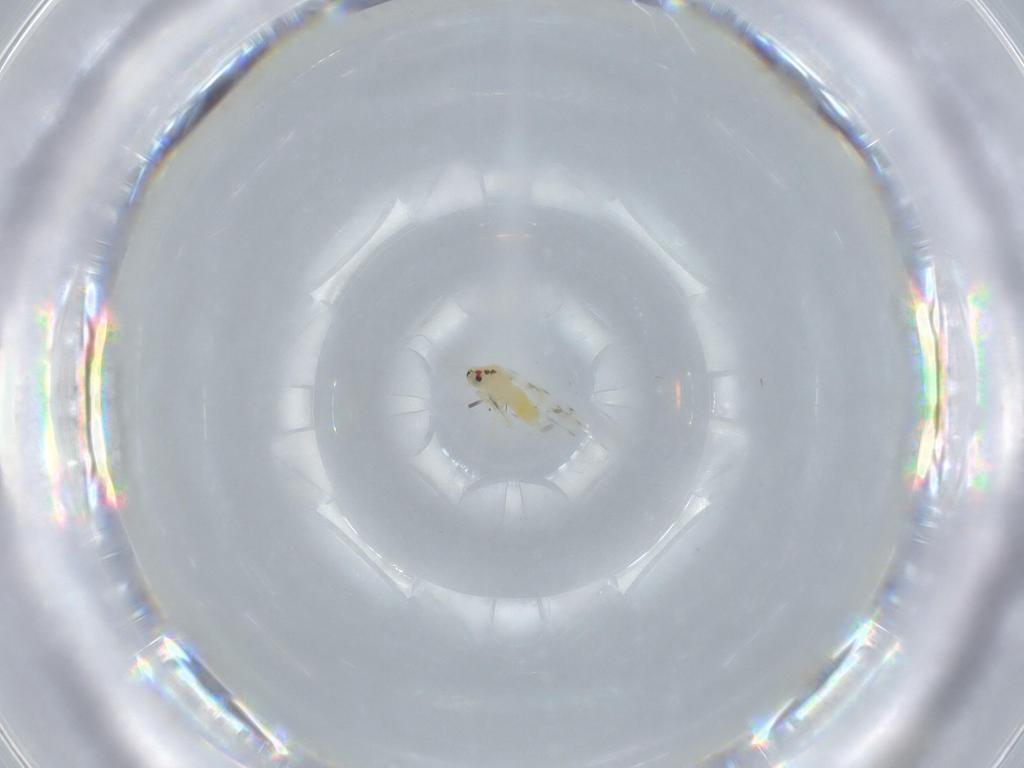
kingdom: Animalia
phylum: Arthropoda
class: Insecta
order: Hemiptera
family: Aleyrodidae
